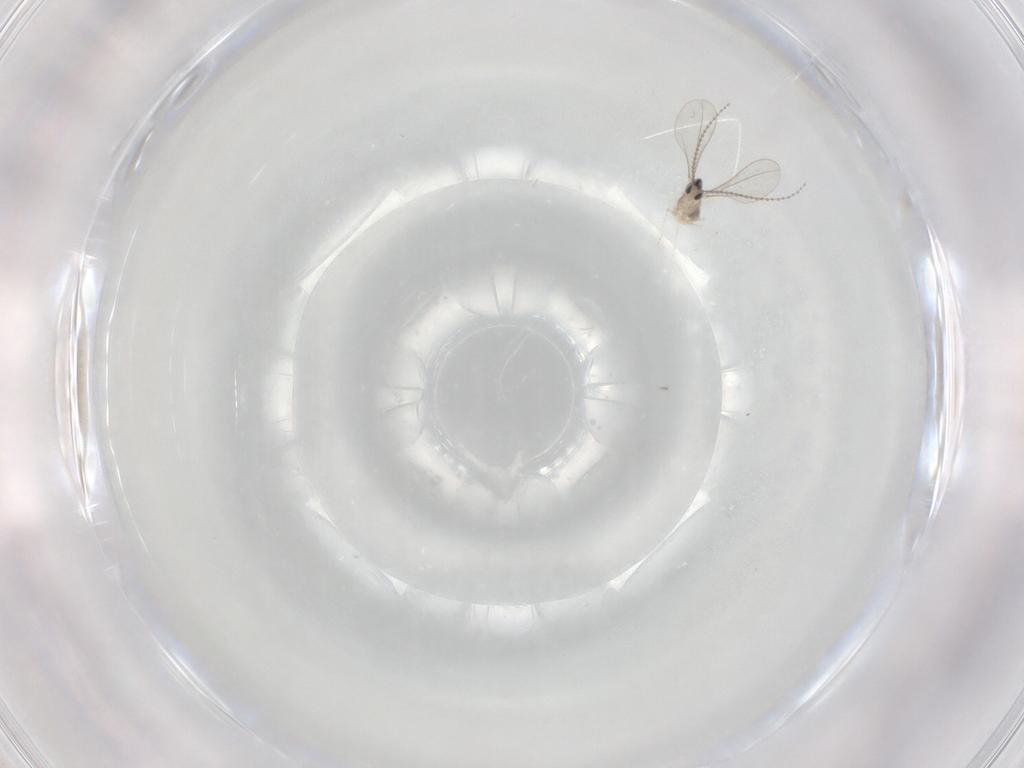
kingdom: Animalia
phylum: Arthropoda
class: Insecta
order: Diptera
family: Cecidomyiidae
